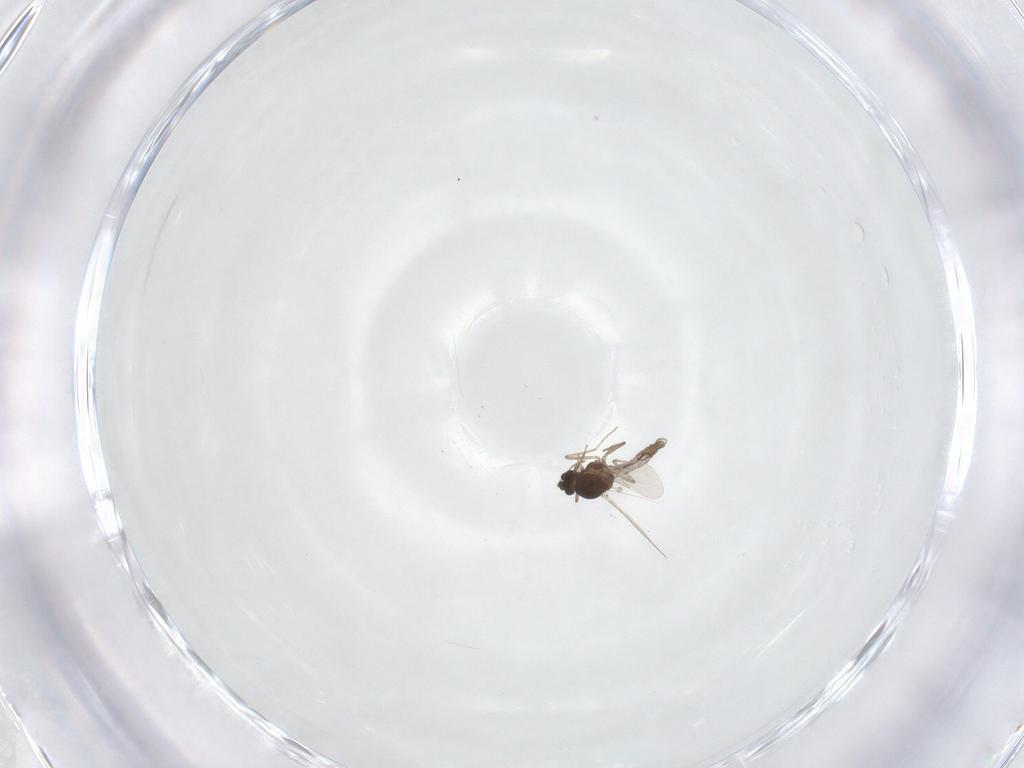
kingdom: Animalia
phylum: Arthropoda
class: Insecta
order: Diptera
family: Ceratopogonidae
